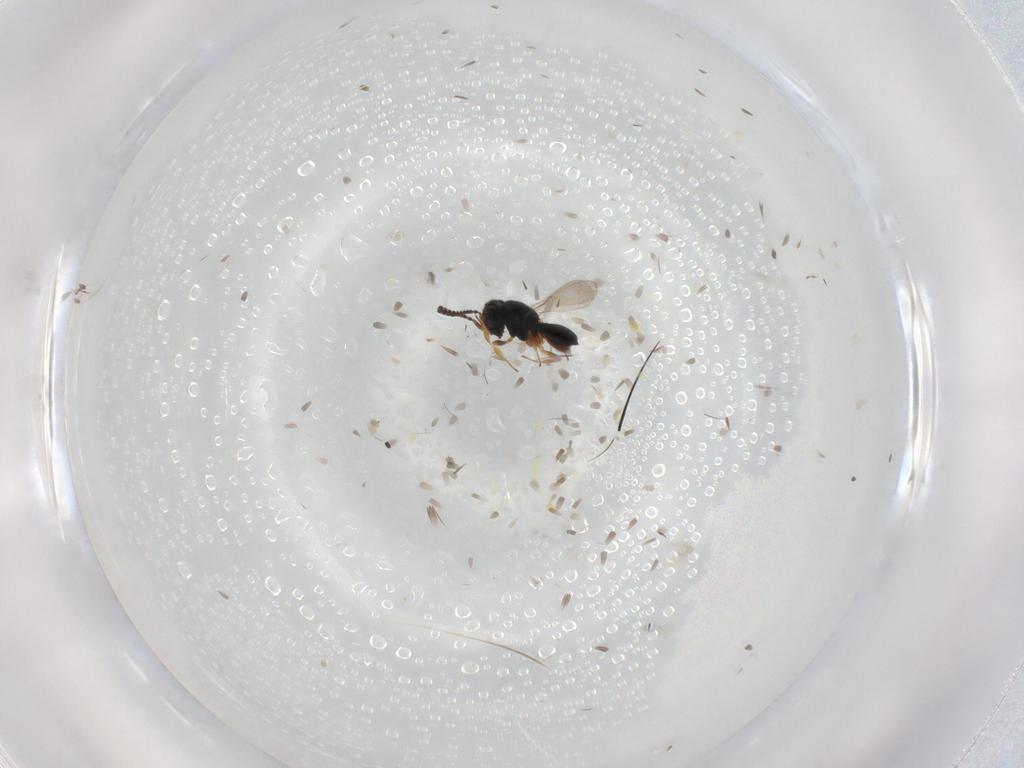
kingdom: Animalia
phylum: Arthropoda
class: Insecta
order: Hymenoptera
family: Scelionidae
